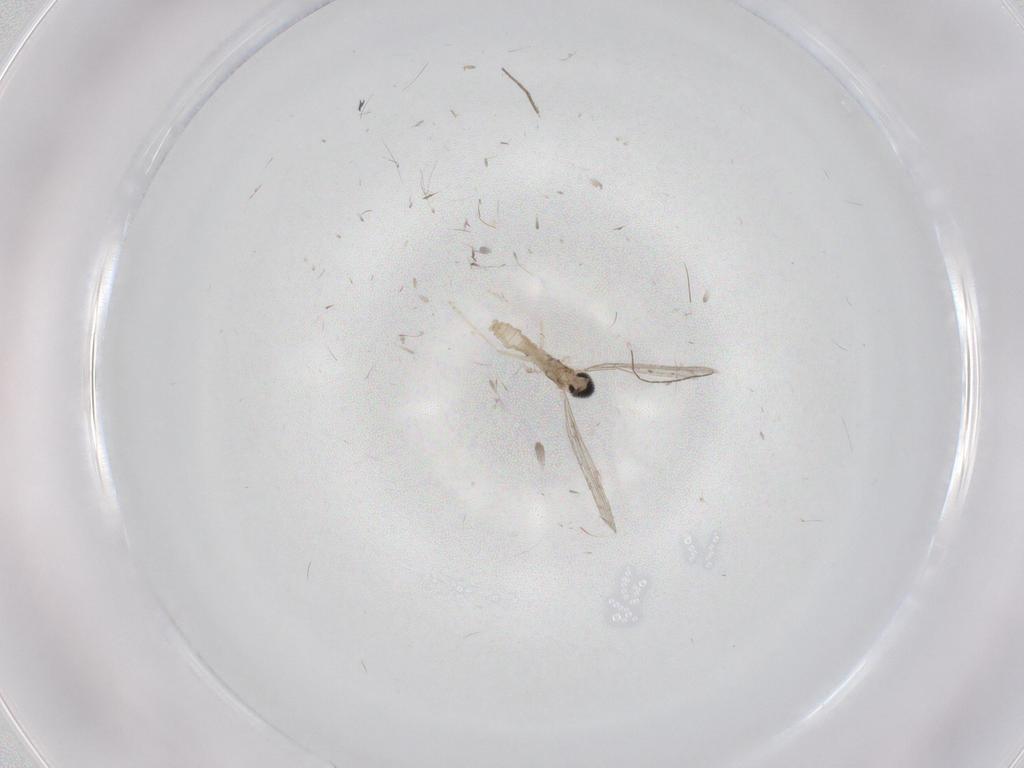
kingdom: Animalia
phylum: Arthropoda
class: Insecta
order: Diptera
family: Chironomidae
